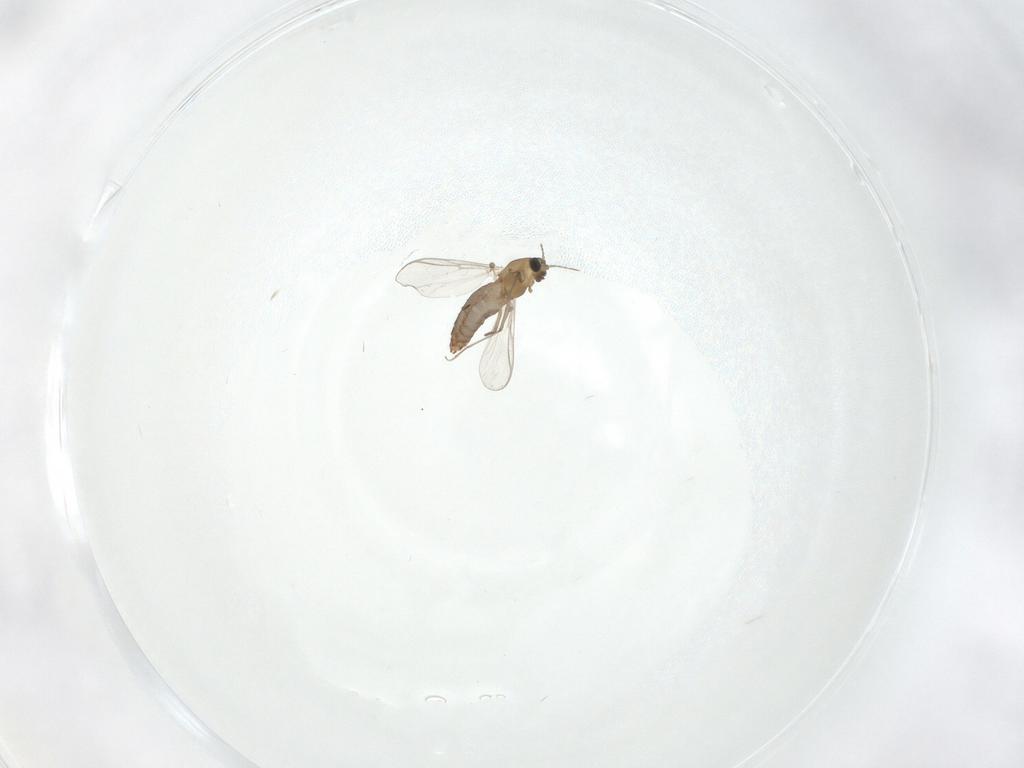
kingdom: Animalia
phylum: Arthropoda
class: Insecta
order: Diptera
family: Chironomidae
